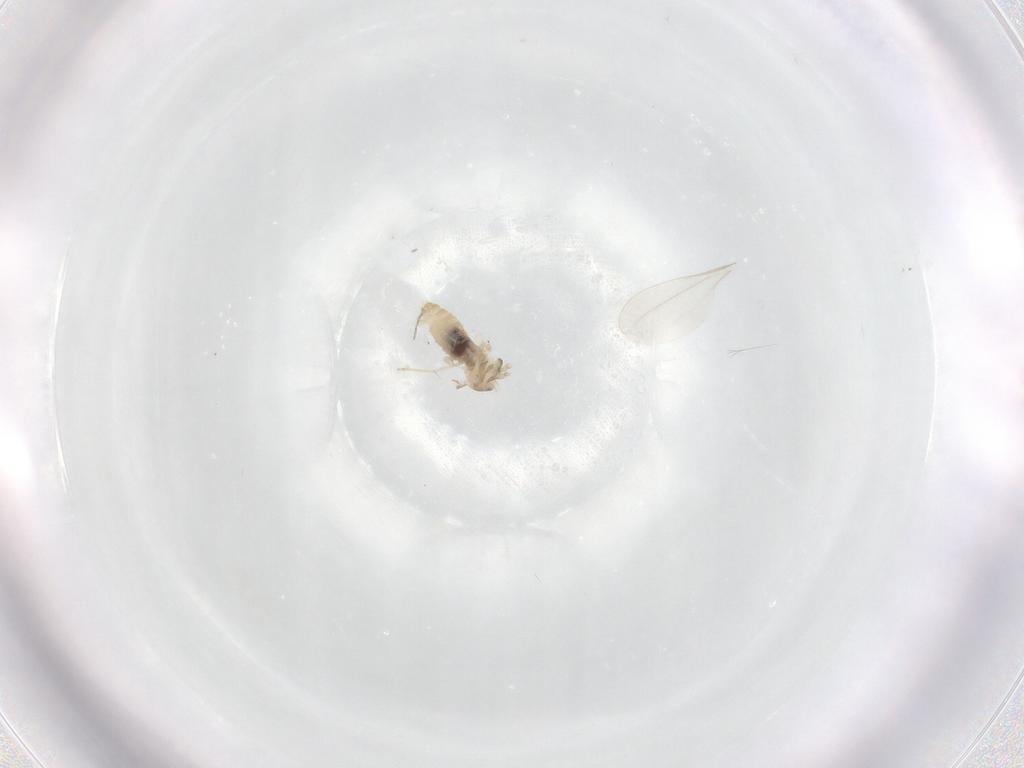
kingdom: Animalia
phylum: Arthropoda
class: Insecta
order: Diptera
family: Cecidomyiidae
